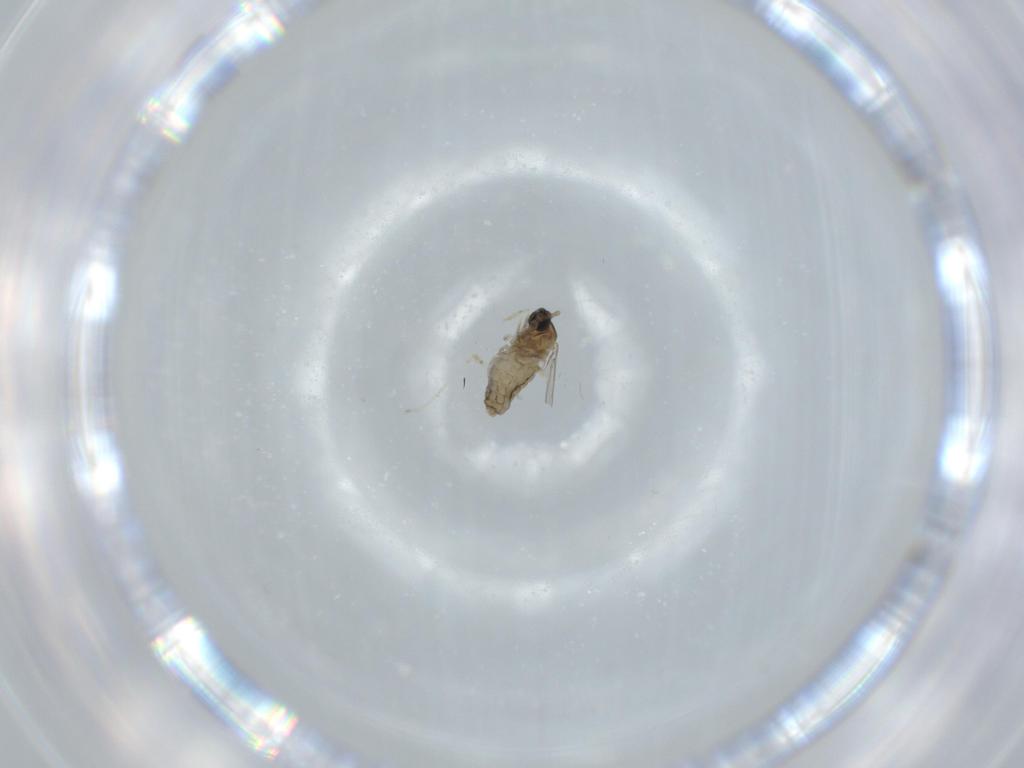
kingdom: Animalia
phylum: Arthropoda
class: Insecta
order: Diptera
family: Cecidomyiidae
